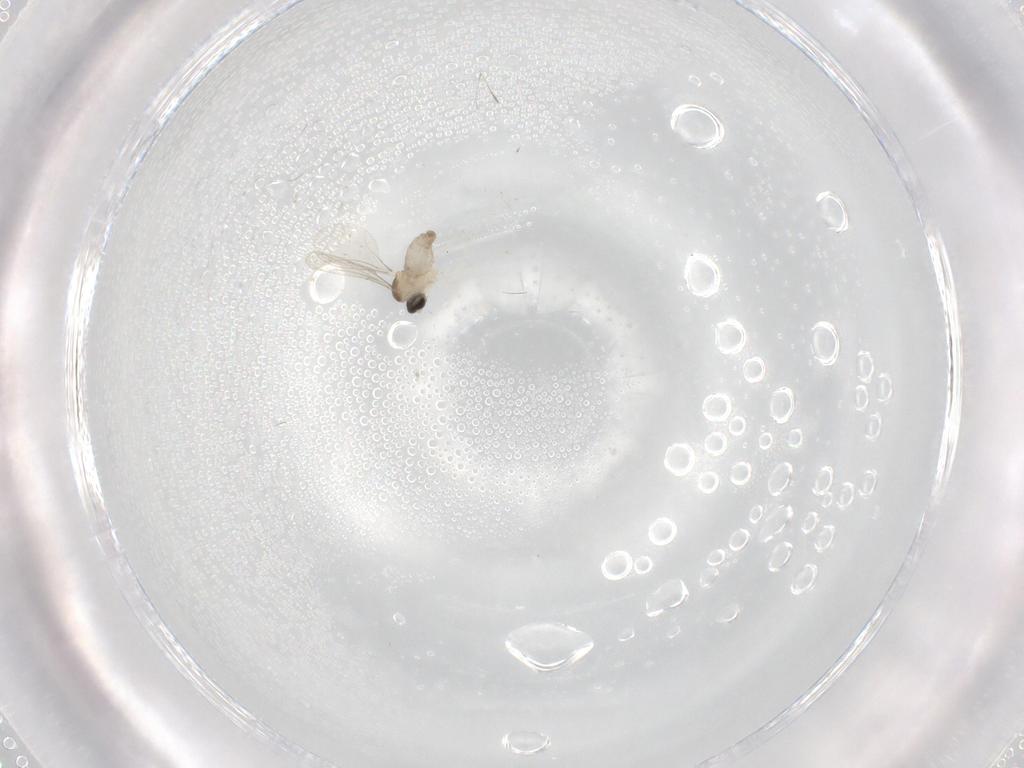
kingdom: Animalia
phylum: Arthropoda
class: Insecta
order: Diptera
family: Cecidomyiidae
